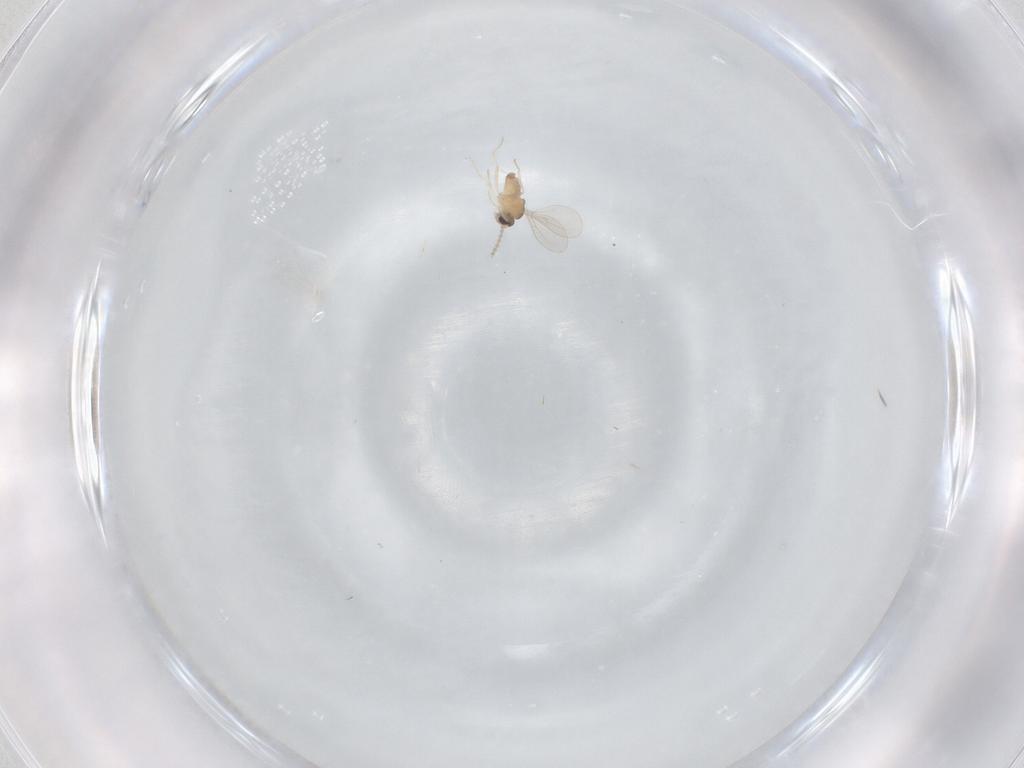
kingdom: Animalia
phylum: Arthropoda
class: Insecta
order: Diptera
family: Cecidomyiidae
